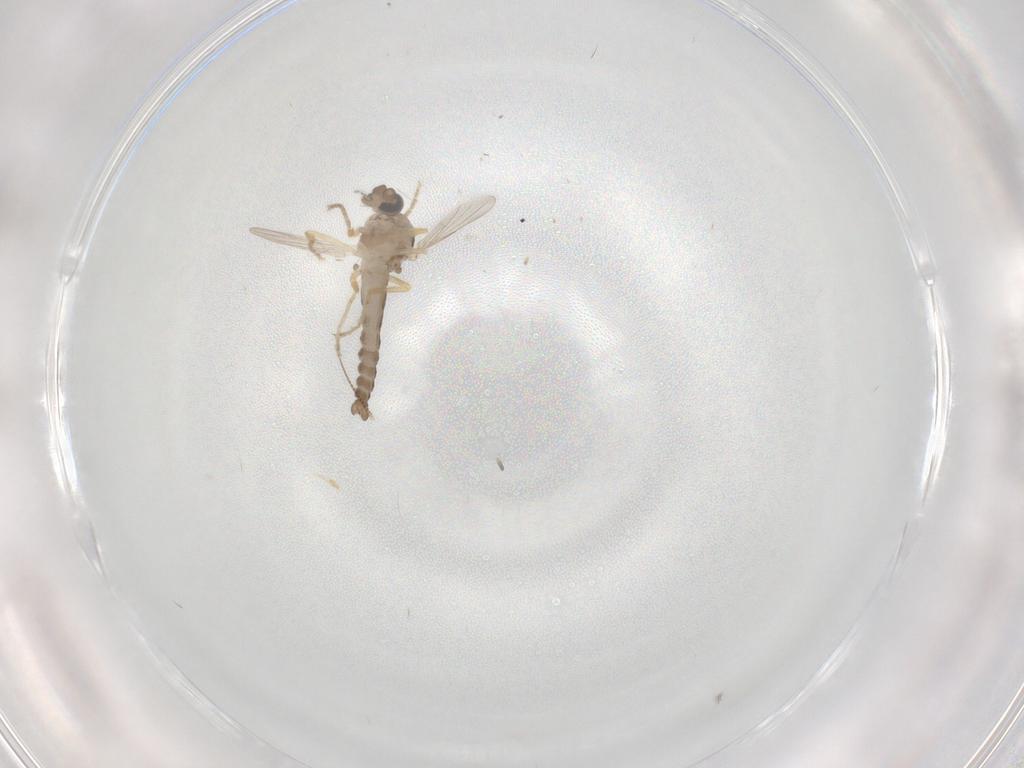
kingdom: Animalia
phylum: Arthropoda
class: Insecta
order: Diptera
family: Ceratopogonidae
